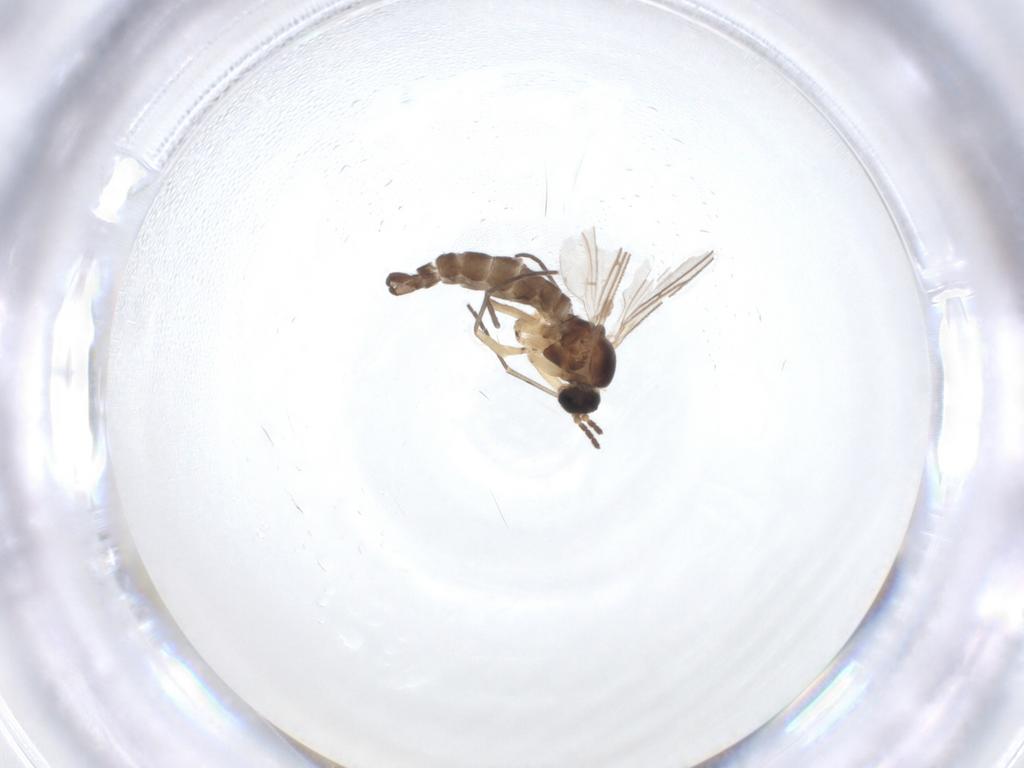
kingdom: Animalia
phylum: Arthropoda
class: Insecta
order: Diptera
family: Sciaridae
